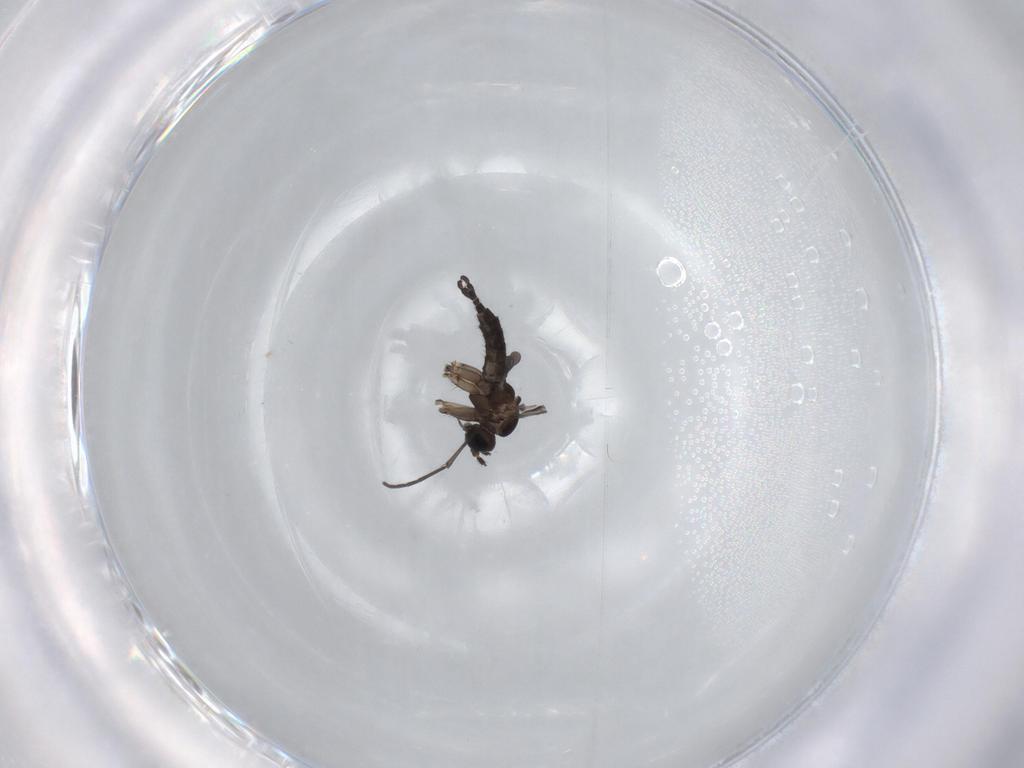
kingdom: Animalia
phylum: Arthropoda
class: Insecta
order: Diptera
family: Sciaridae
